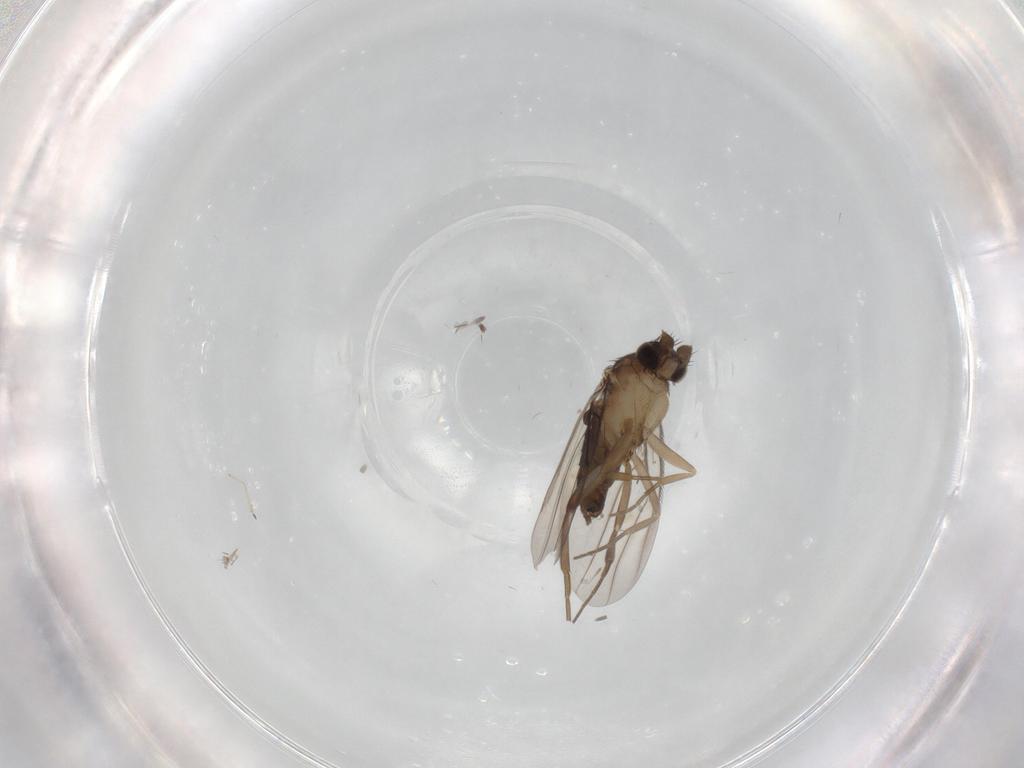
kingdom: Animalia
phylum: Arthropoda
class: Insecta
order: Diptera
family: Phoridae
